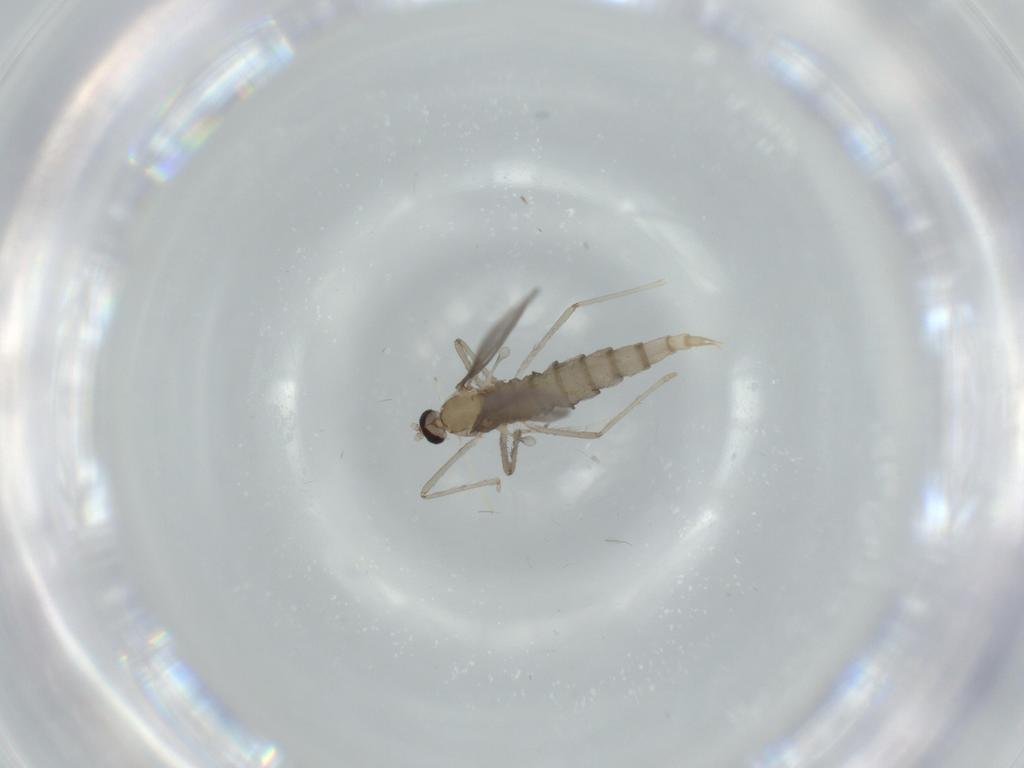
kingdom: Animalia
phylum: Arthropoda
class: Insecta
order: Diptera
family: Cecidomyiidae
